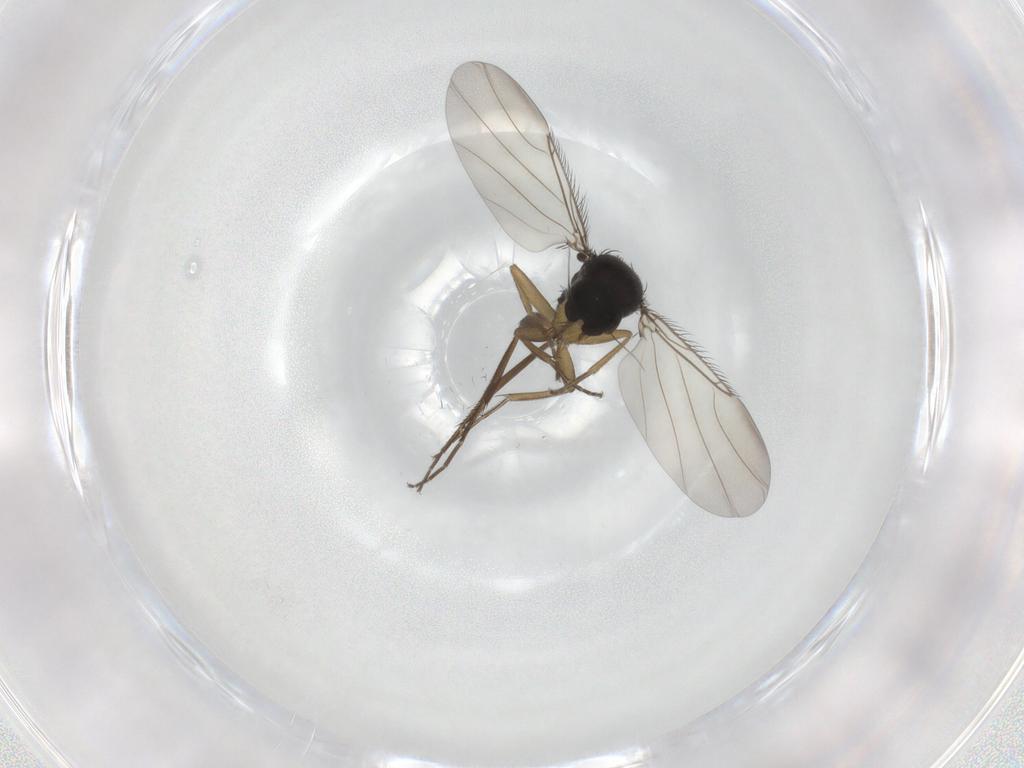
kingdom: Animalia
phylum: Arthropoda
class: Insecta
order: Diptera
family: Phoridae
